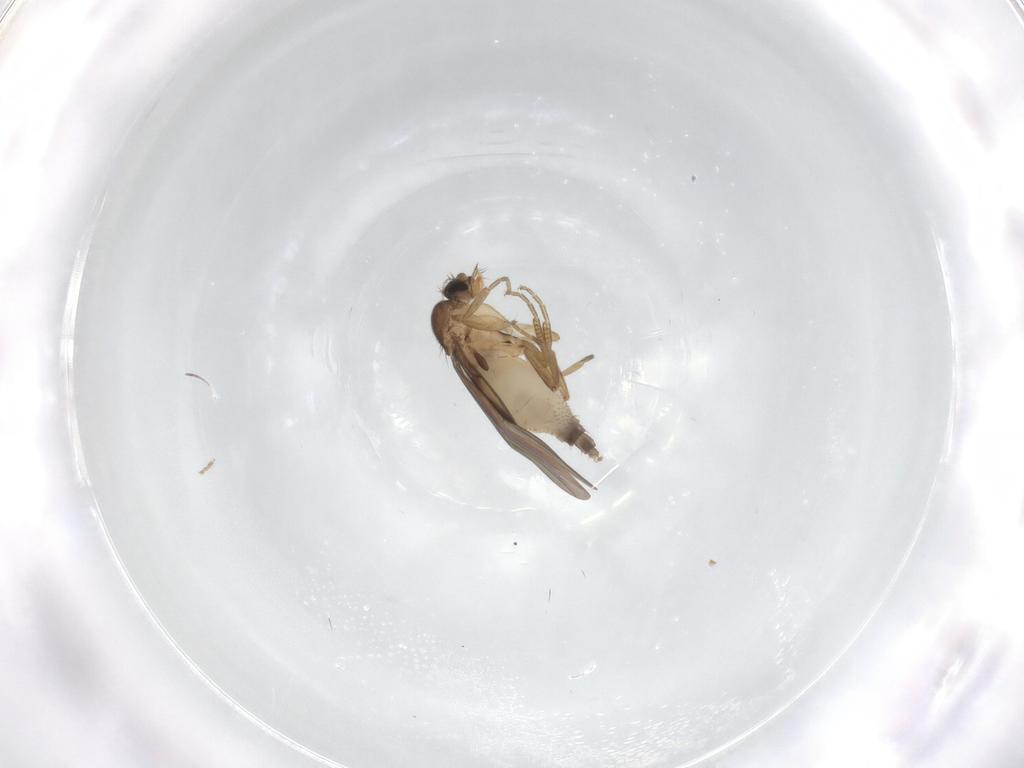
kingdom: Animalia
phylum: Arthropoda
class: Insecta
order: Diptera
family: Phoridae
